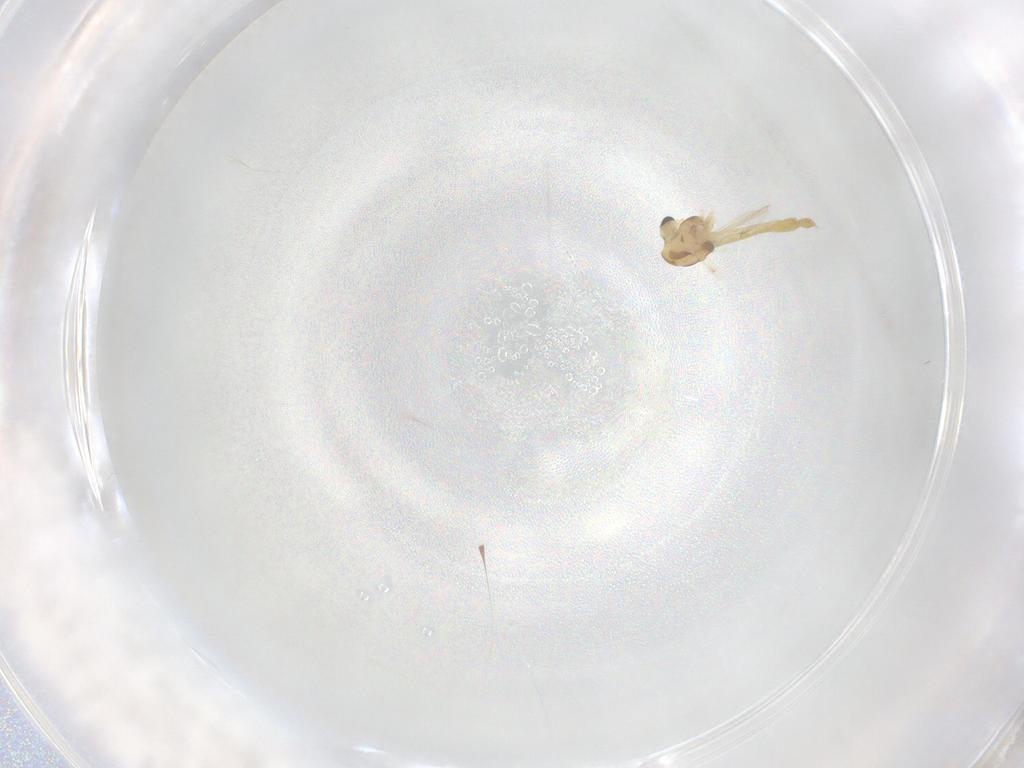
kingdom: Animalia
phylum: Arthropoda
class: Insecta
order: Diptera
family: Chironomidae
